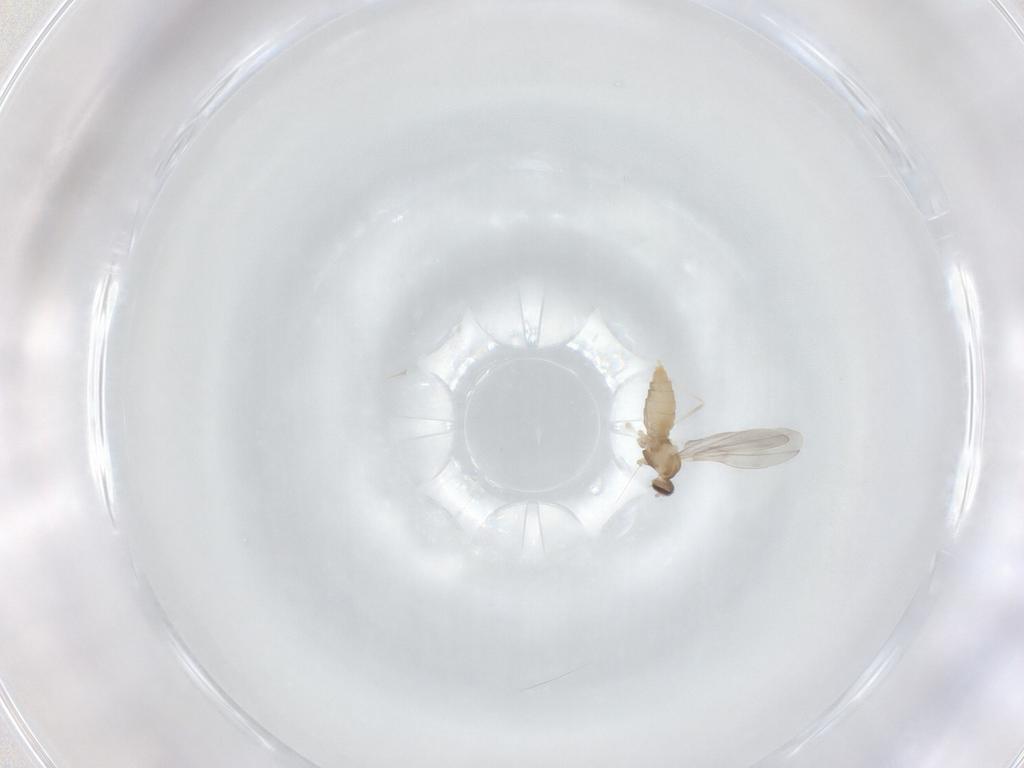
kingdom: Animalia
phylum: Arthropoda
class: Insecta
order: Diptera
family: Cecidomyiidae
